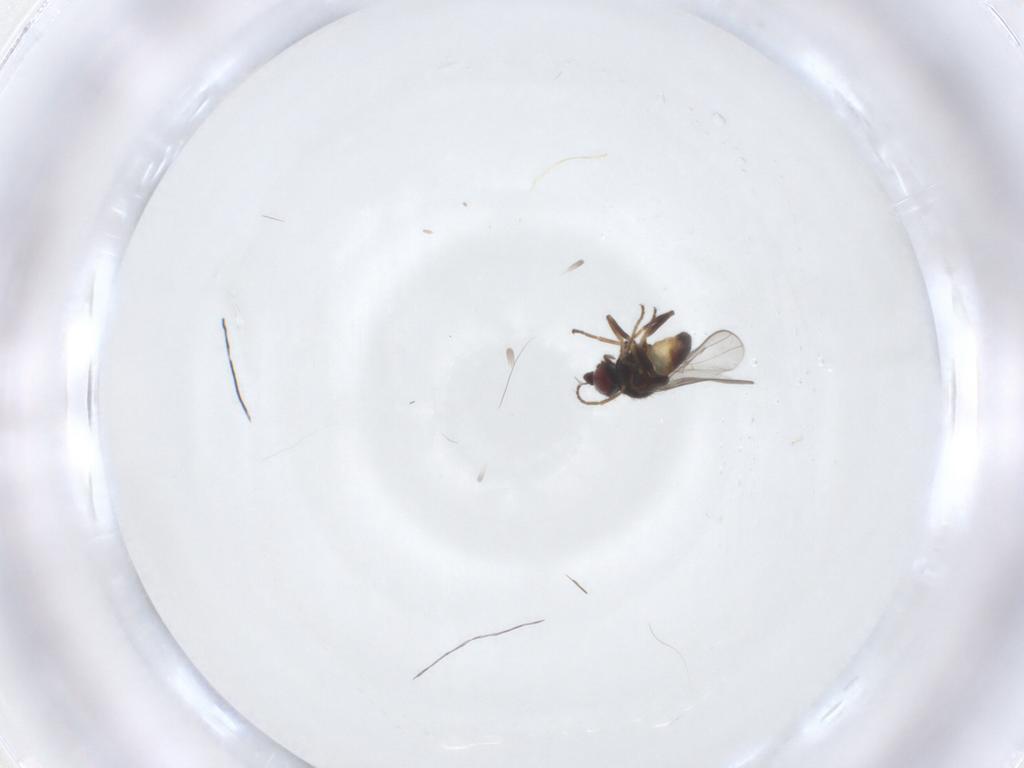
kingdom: Animalia
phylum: Arthropoda
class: Insecta
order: Diptera
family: Chloropidae
